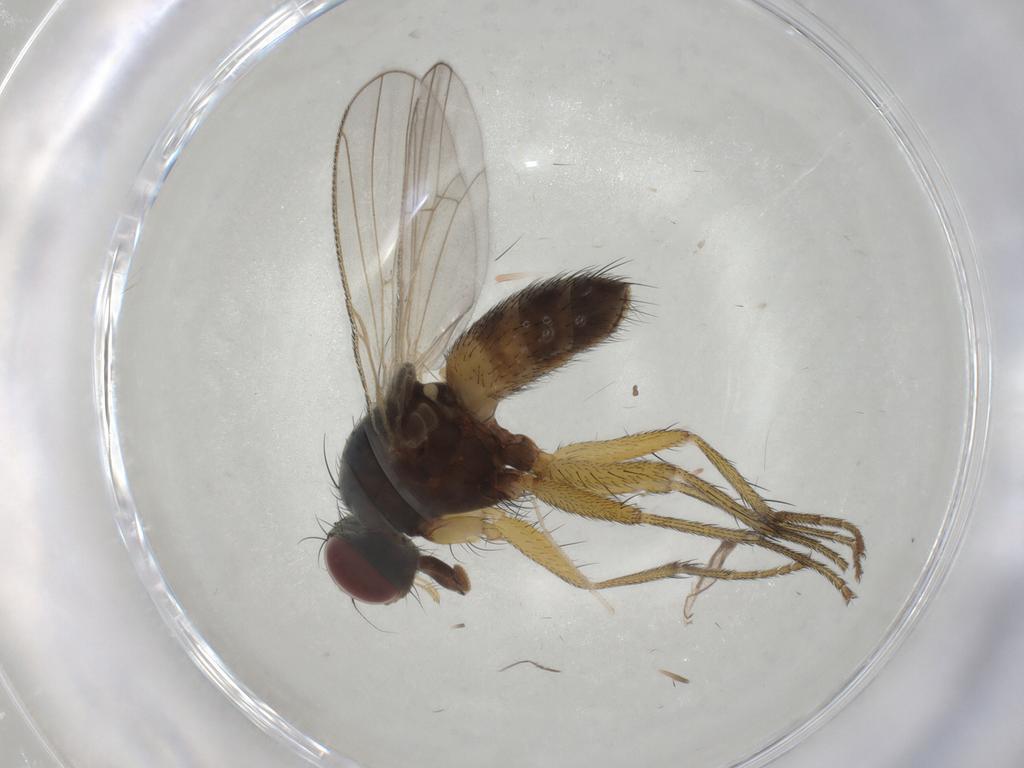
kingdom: Animalia
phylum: Arthropoda
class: Insecta
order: Diptera
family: Muscidae
